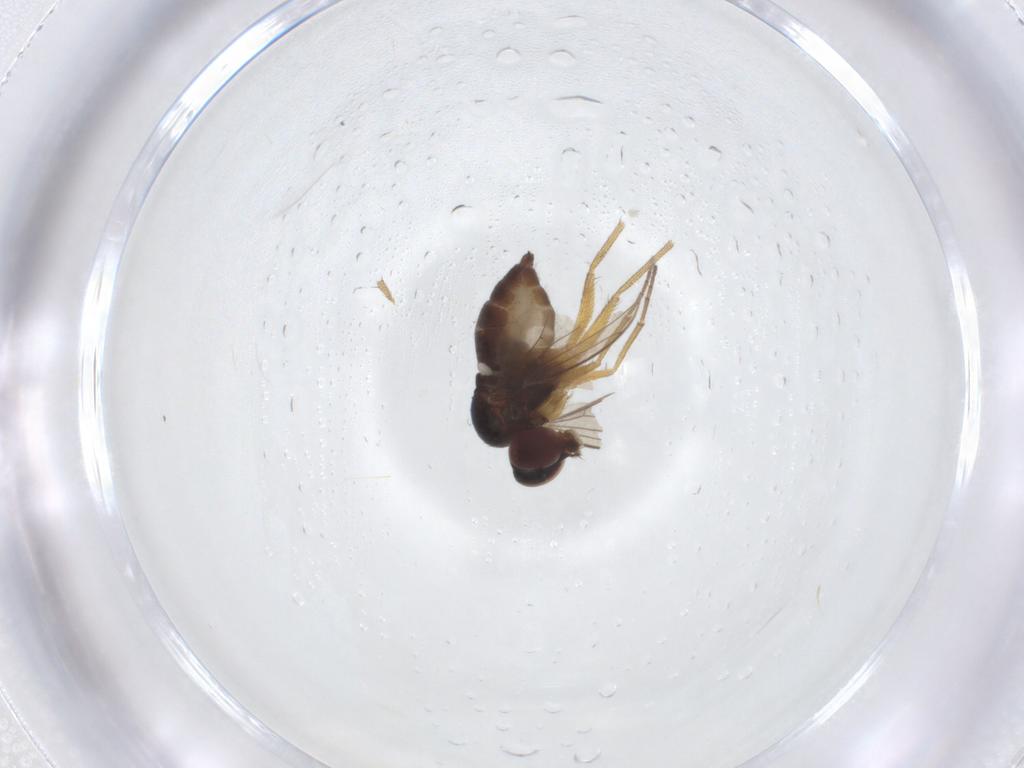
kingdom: Animalia
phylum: Arthropoda
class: Insecta
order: Diptera
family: Dolichopodidae
